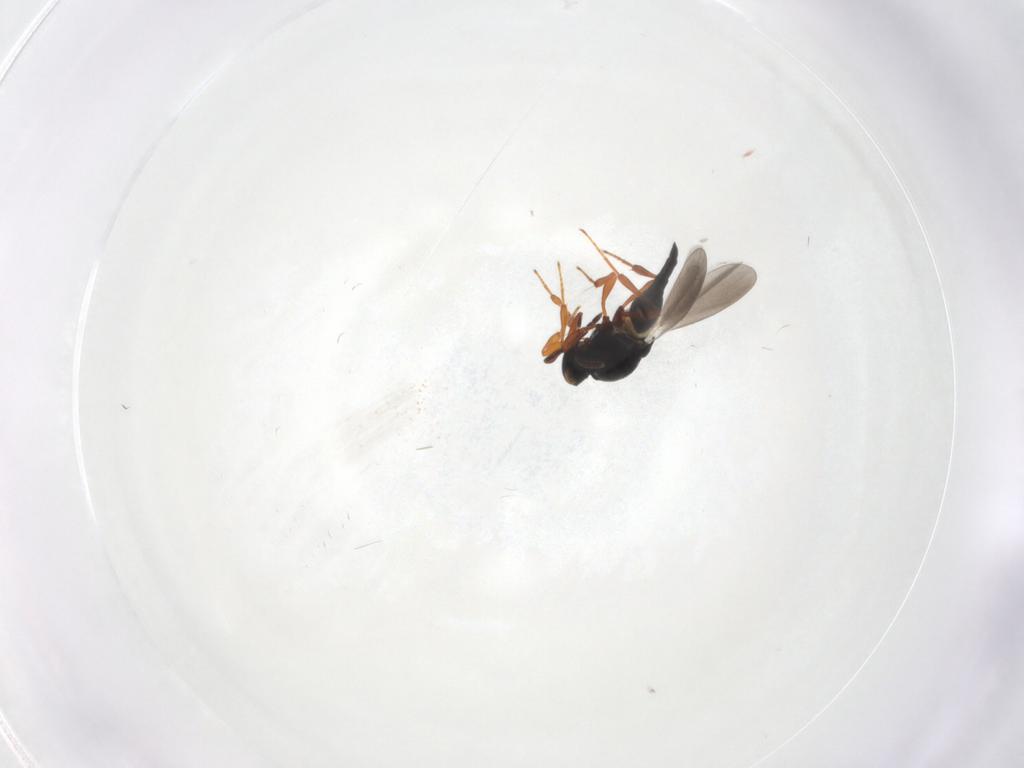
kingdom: Animalia
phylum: Arthropoda
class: Insecta
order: Hymenoptera
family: Platygastridae
